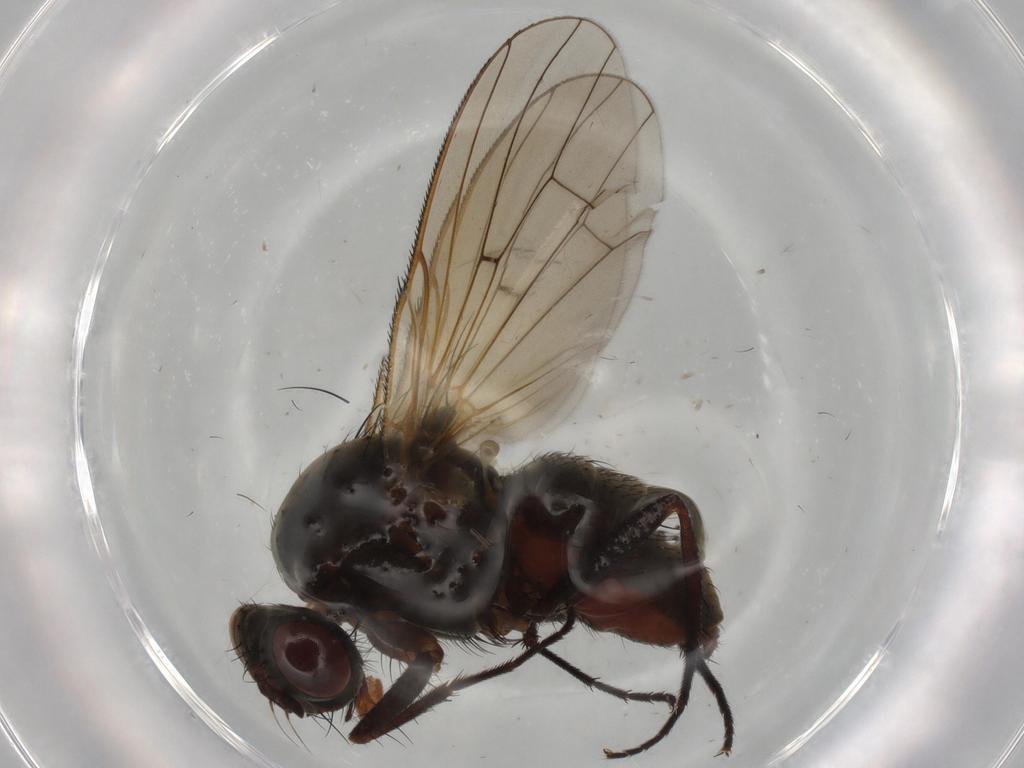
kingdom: Animalia
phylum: Arthropoda
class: Insecta
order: Diptera
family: Anthomyiidae
